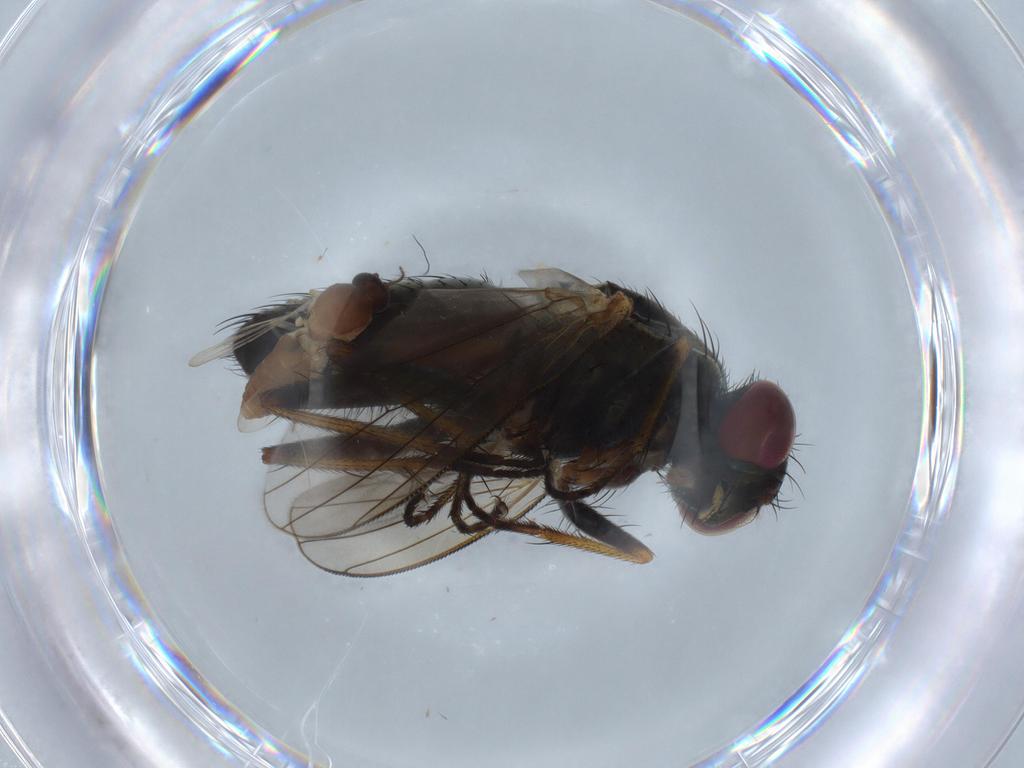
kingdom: Animalia
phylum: Arthropoda
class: Insecta
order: Diptera
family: Muscidae
